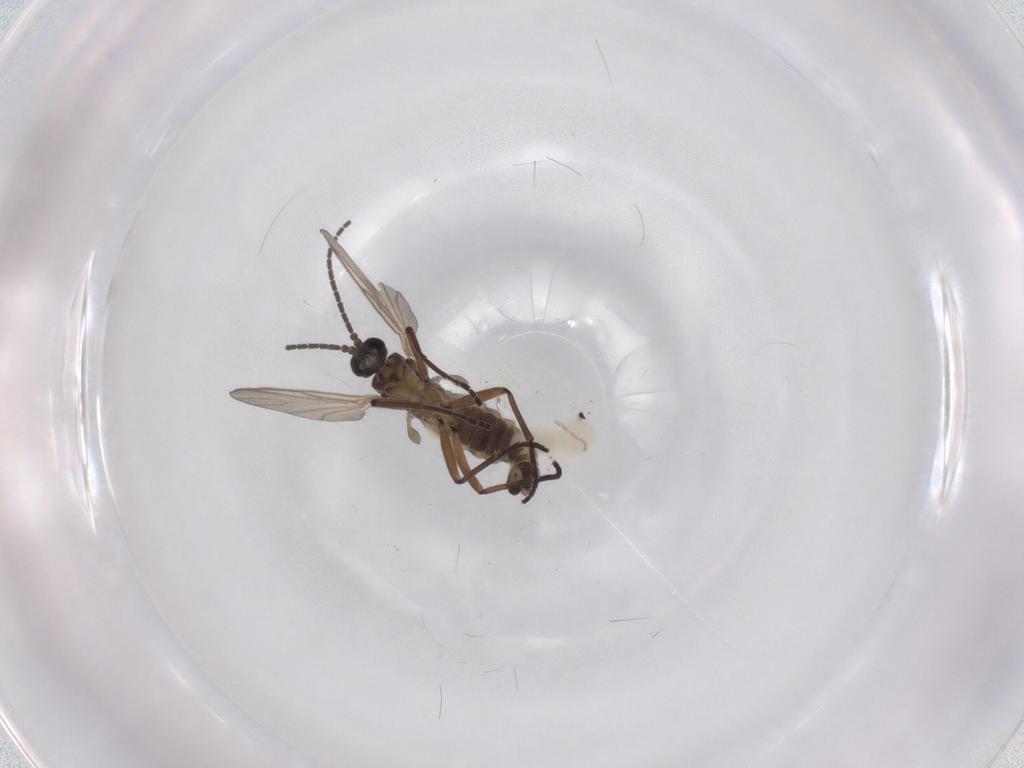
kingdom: Animalia
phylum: Arthropoda
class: Insecta
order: Diptera
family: Sciaridae
